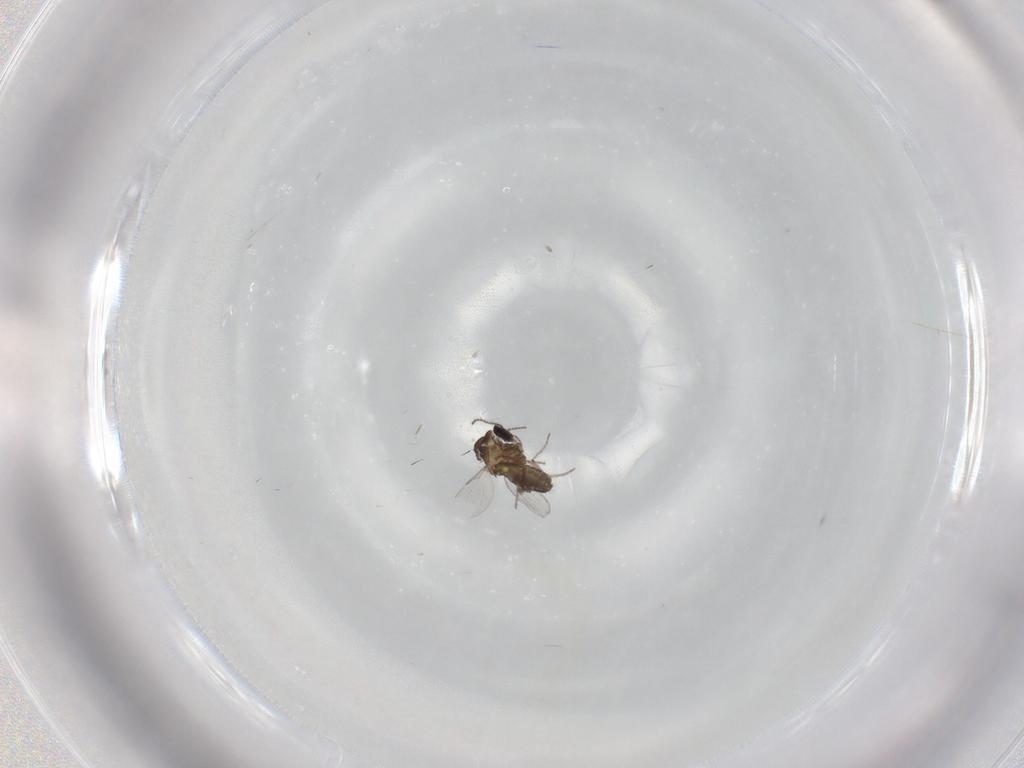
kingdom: Animalia
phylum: Arthropoda
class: Insecta
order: Diptera
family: Ceratopogonidae
